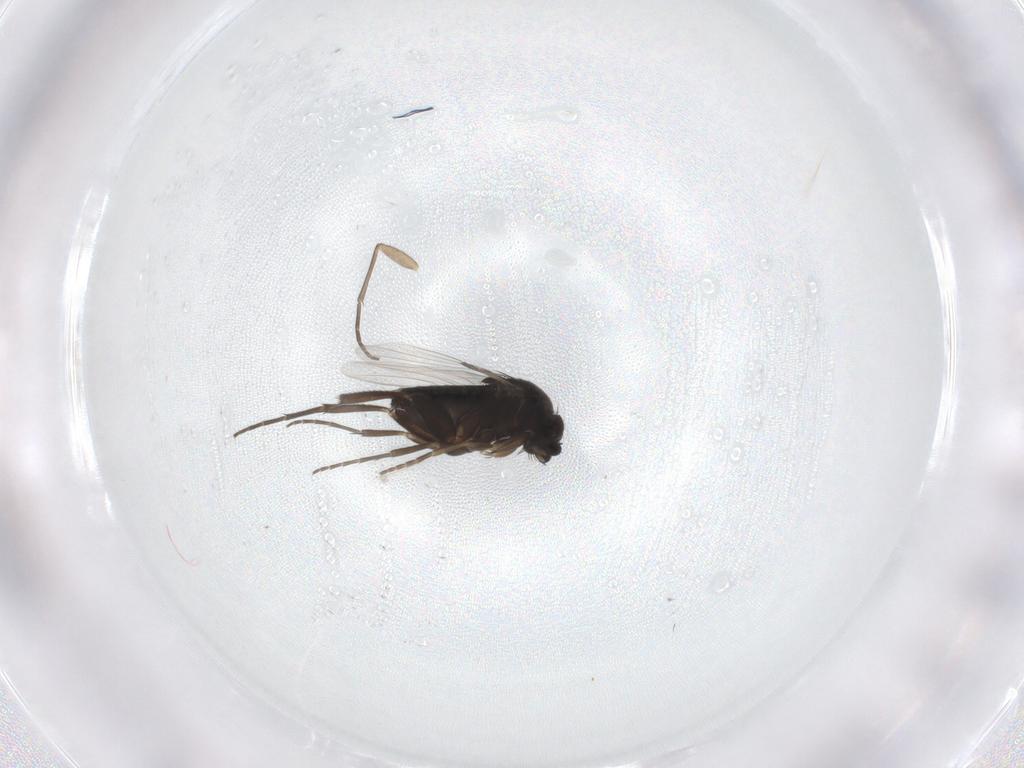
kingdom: Animalia
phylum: Arthropoda
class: Insecta
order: Diptera
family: Phoridae
